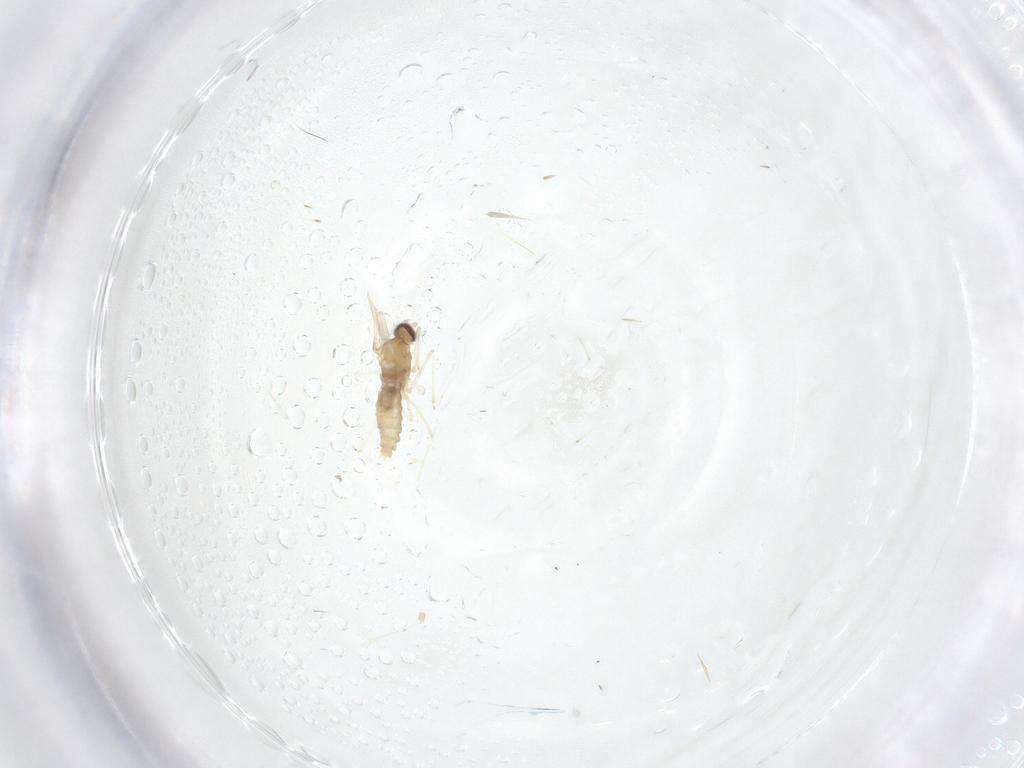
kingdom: Animalia
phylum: Arthropoda
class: Insecta
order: Diptera
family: Cecidomyiidae
